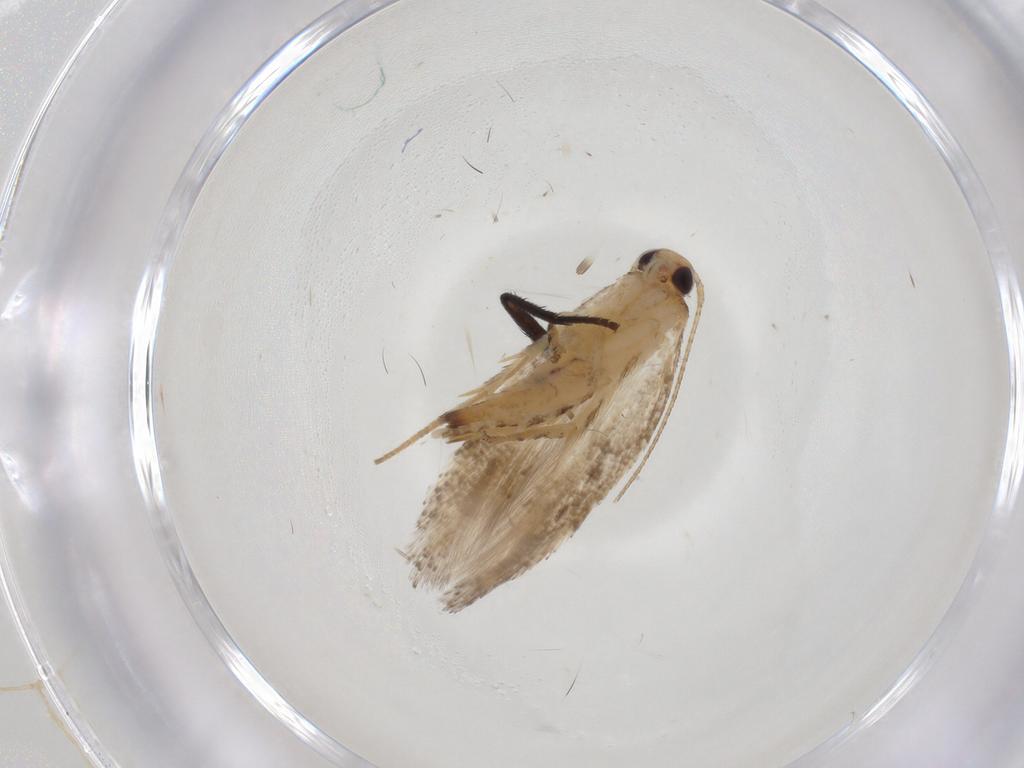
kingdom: Animalia
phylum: Arthropoda
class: Insecta
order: Lepidoptera
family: Gelechiidae
